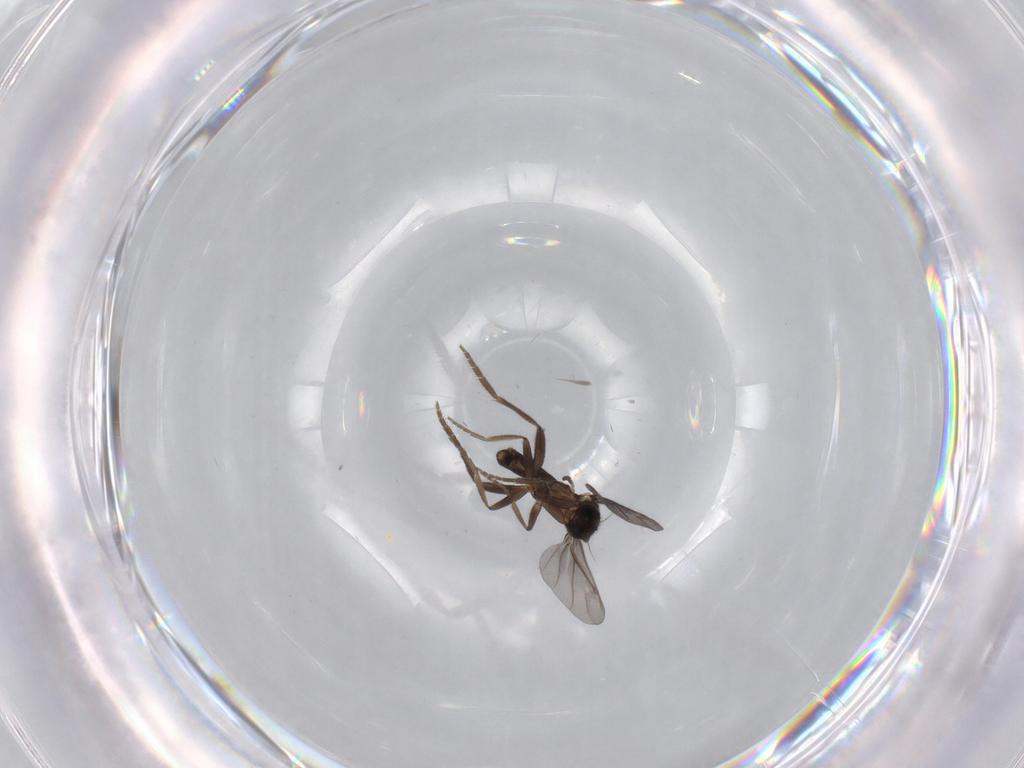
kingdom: Animalia
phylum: Arthropoda
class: Insecta
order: Diptera
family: Phoridae
